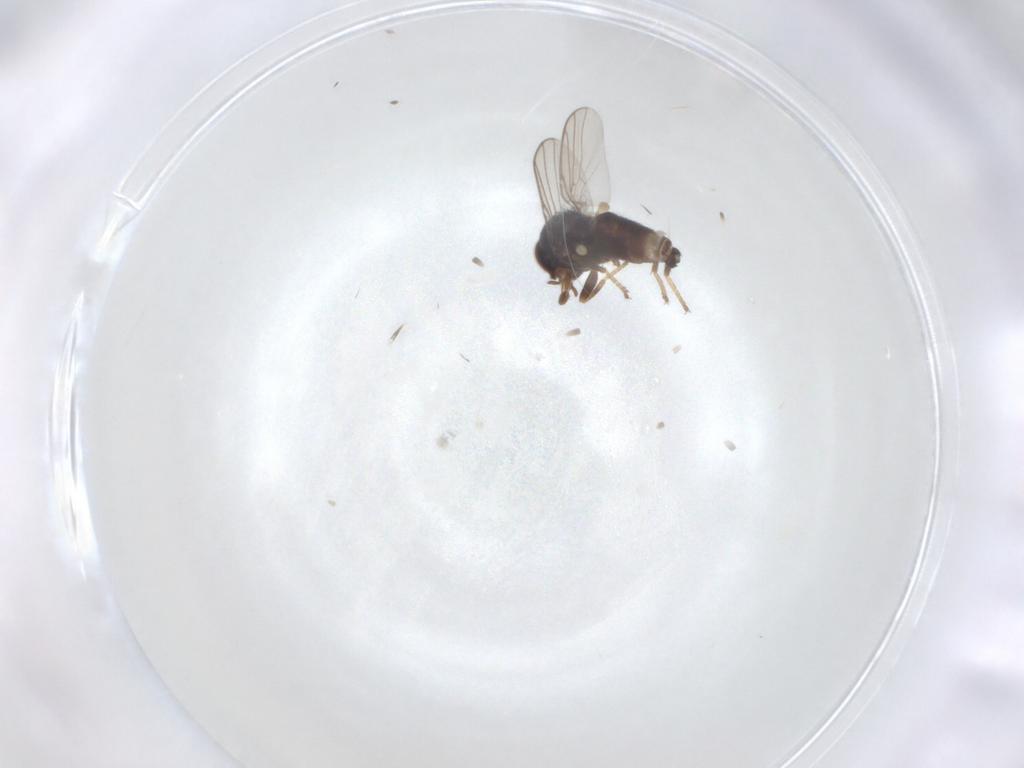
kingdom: Animalia
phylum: Arthropoda
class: Insecta
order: Diptera
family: Chloropidae
